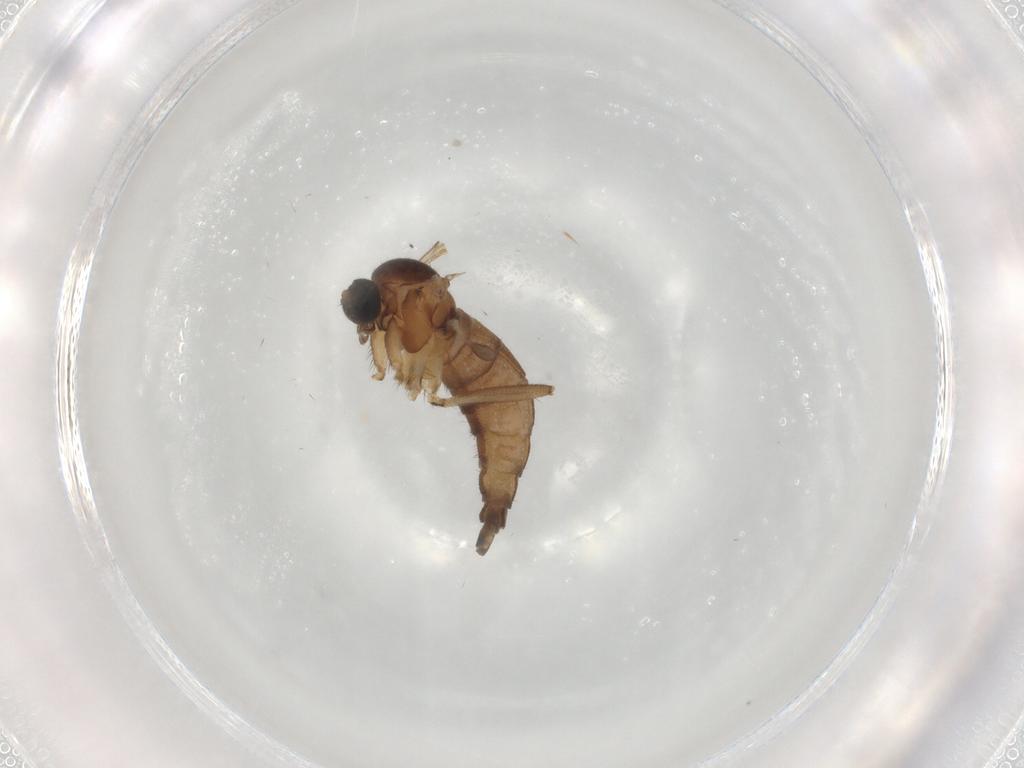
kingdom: Animalia
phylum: Arthropoda
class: Insecta
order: Diptera
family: Sciaridae
